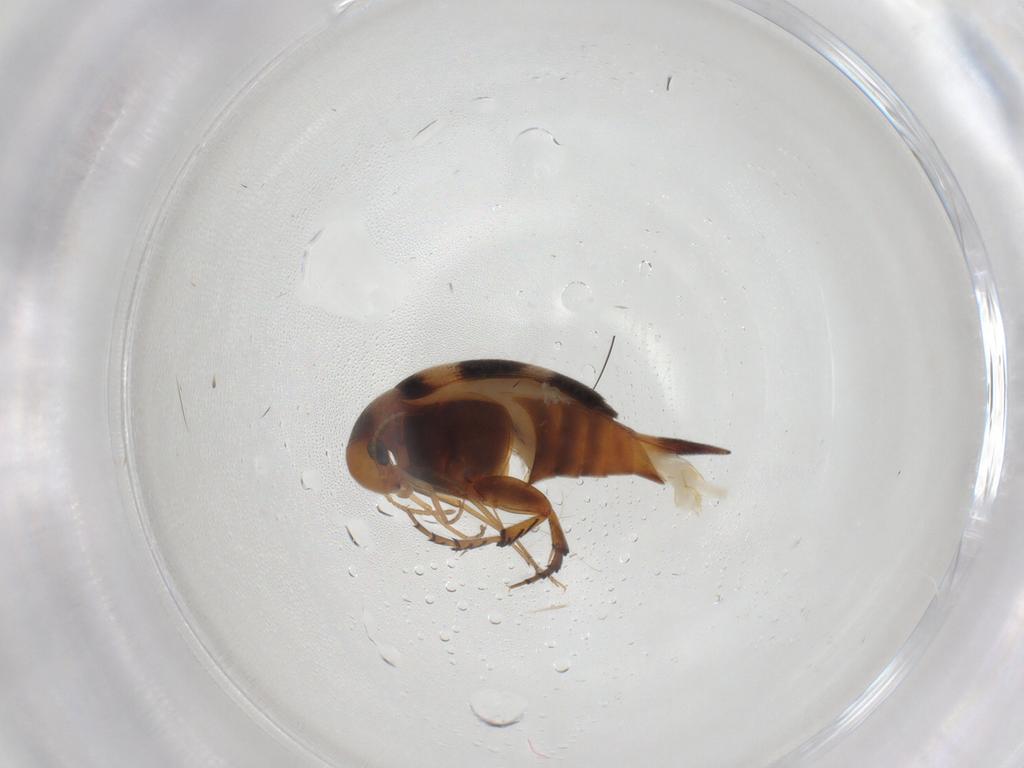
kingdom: Animalia
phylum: Arthropoda
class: Insecta
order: Coleoptera
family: Mordellidae
